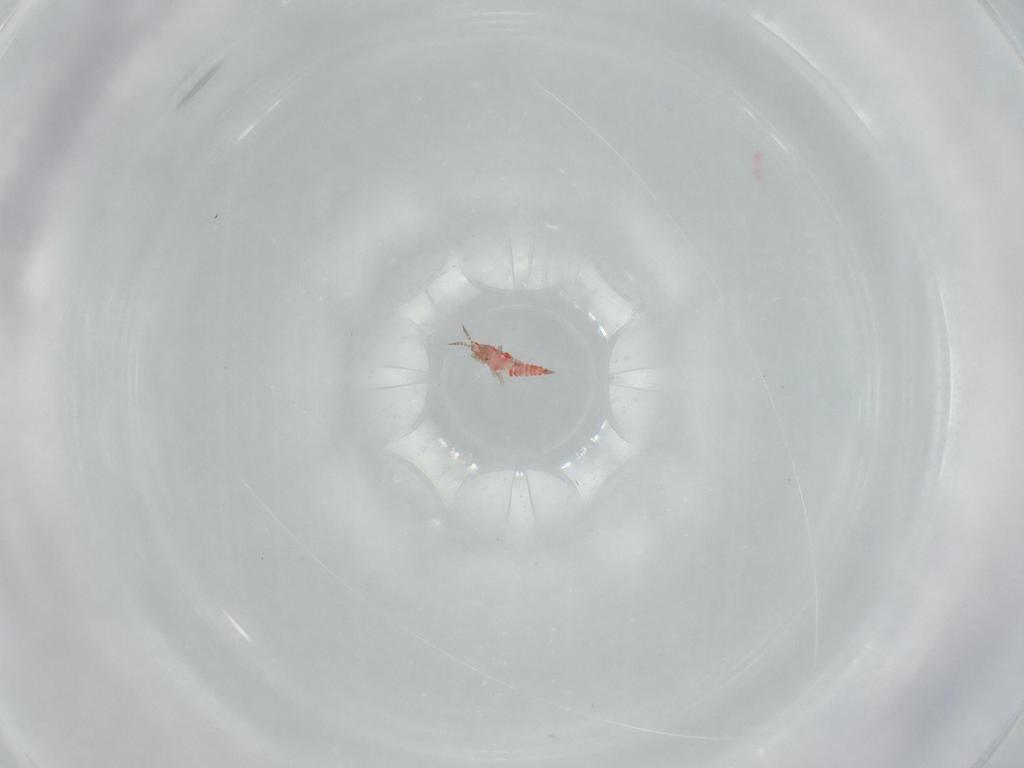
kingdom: Animalia
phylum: Arthropoda
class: Insecta
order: Thysanoptera
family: Phlaeothripidae
